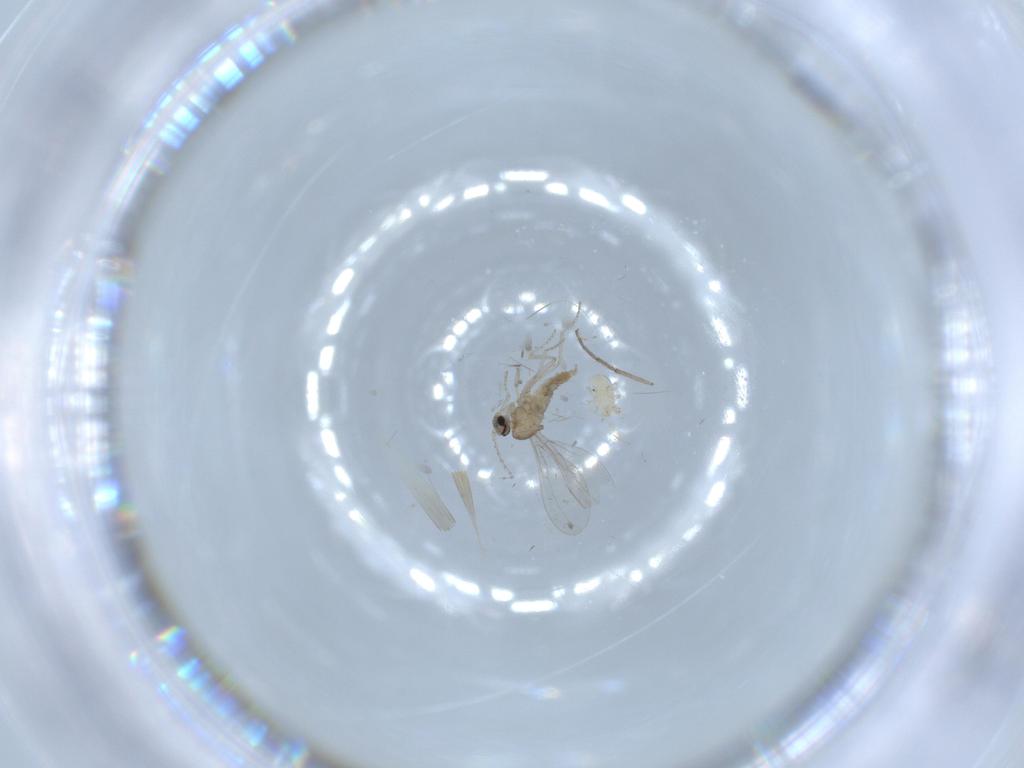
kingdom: Animalia
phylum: Arthropoda
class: Insecta
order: Diptera
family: Cecidomyiidae
